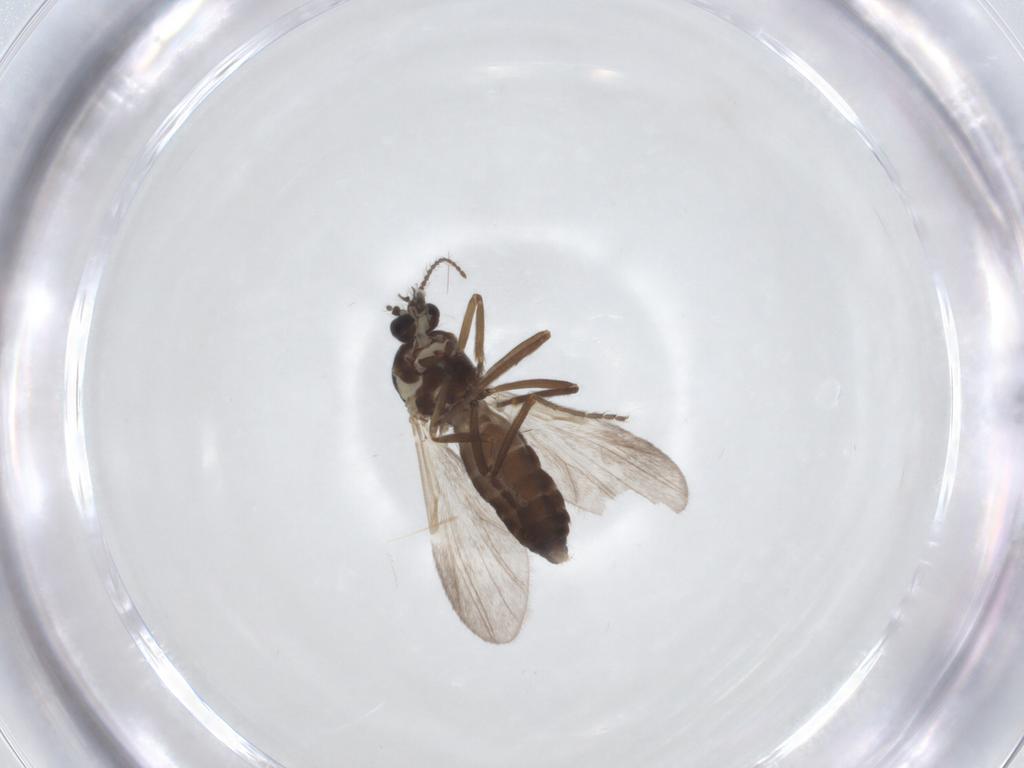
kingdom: Animalia
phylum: Arthropoda
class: Insecta
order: Diptera
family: Ceratopogonidae
